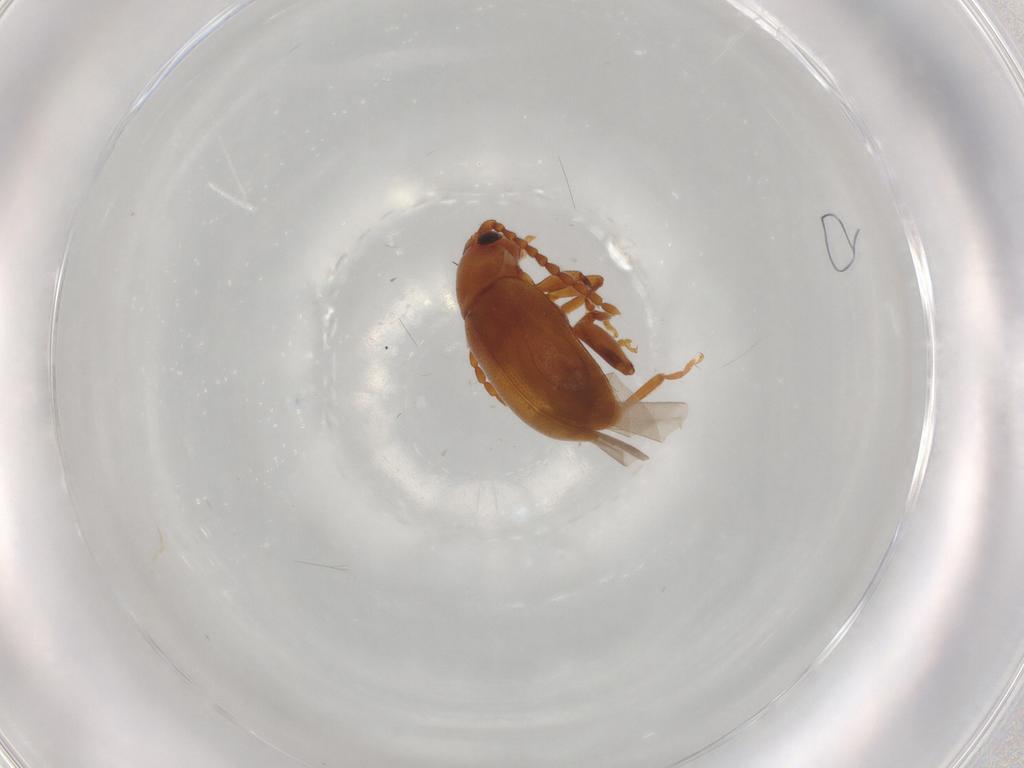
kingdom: Animalia
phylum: Arthropoda
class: Insecta
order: Coleoptera
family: Chrysomelidae
